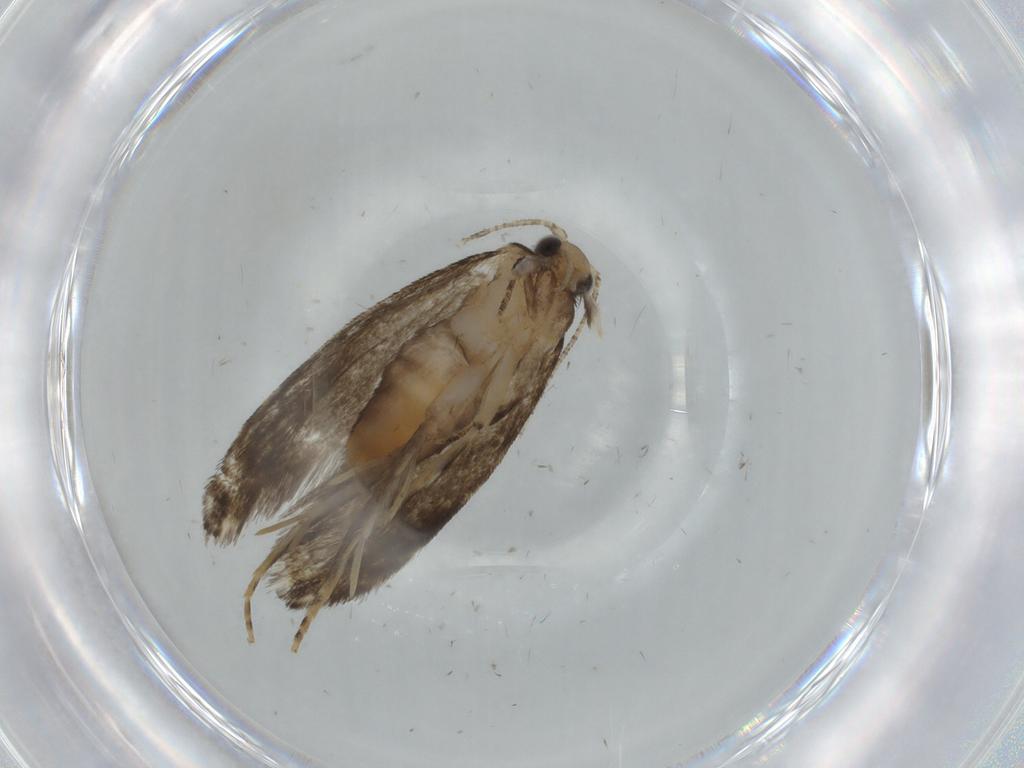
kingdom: Animalia
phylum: Arthropoda
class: Insecta
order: Lepidoptera
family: Tineidae
